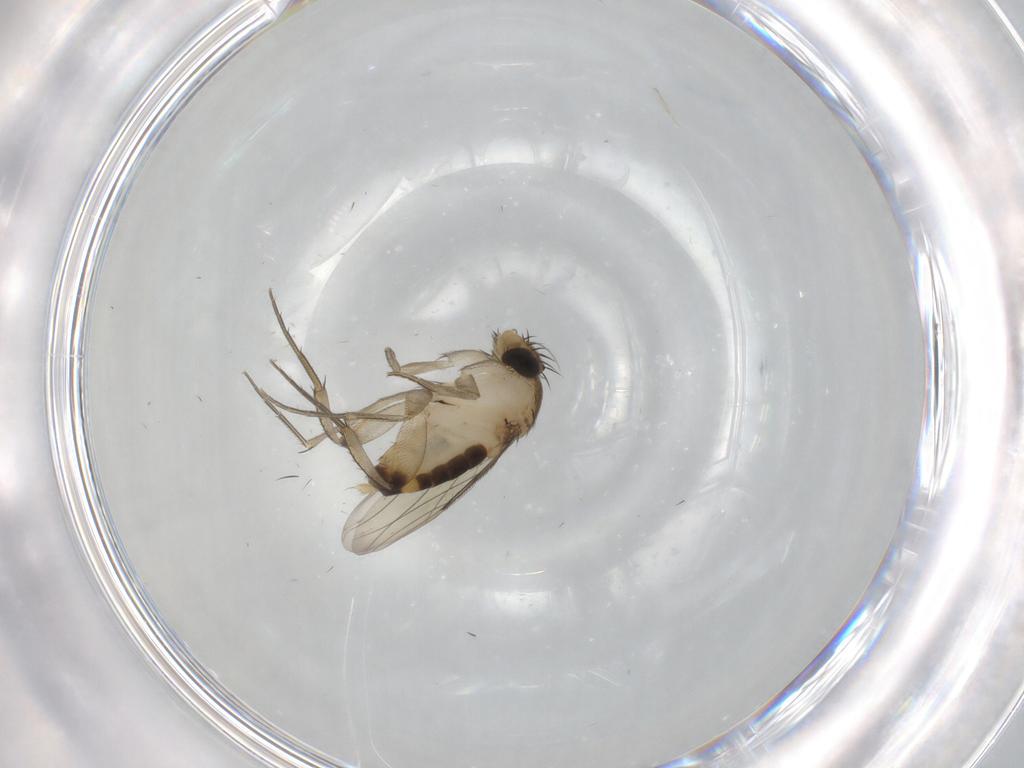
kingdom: Animalia
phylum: Arthropoda
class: Insecta
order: Diptera
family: Phoridae
